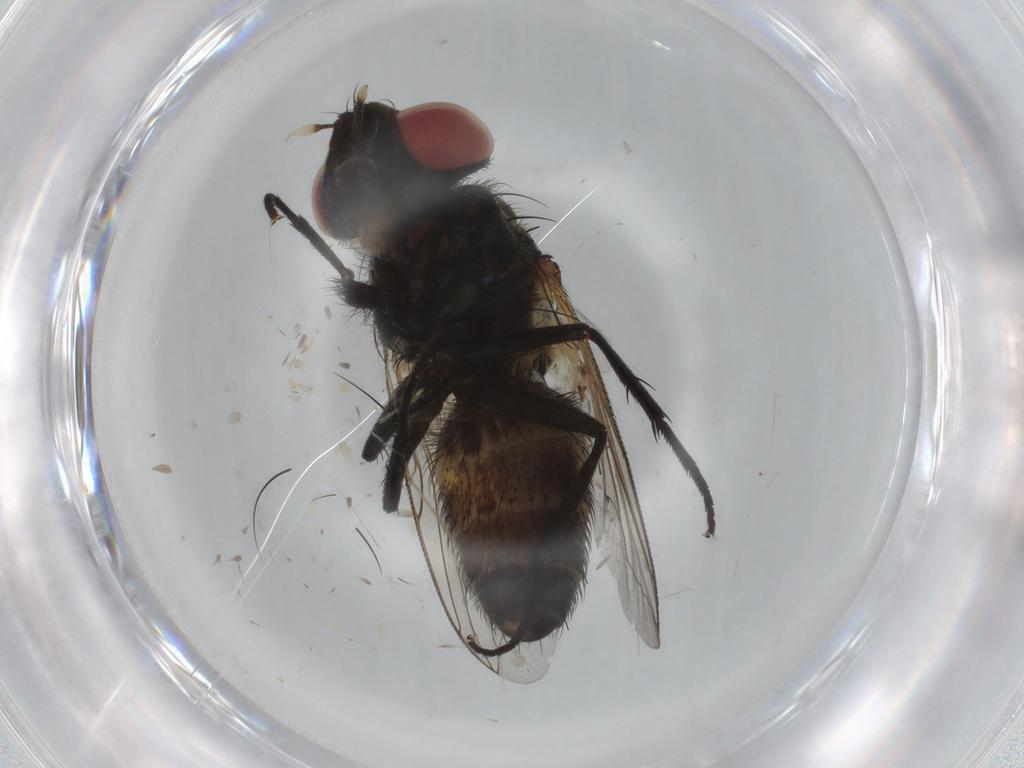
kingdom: Animalia
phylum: Arthropoda
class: Insecta
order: Diptera
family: Sarcophagidae
